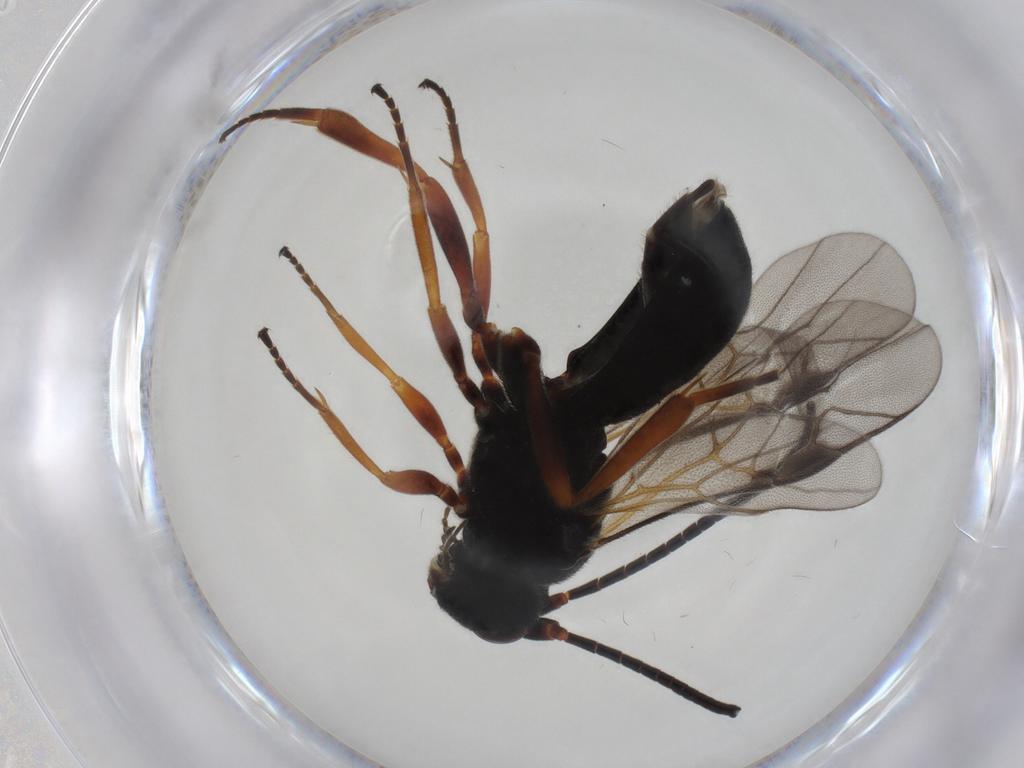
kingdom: Animalia
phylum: Arthropoda
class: Insecta
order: Hymenoptera
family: Braconidae
